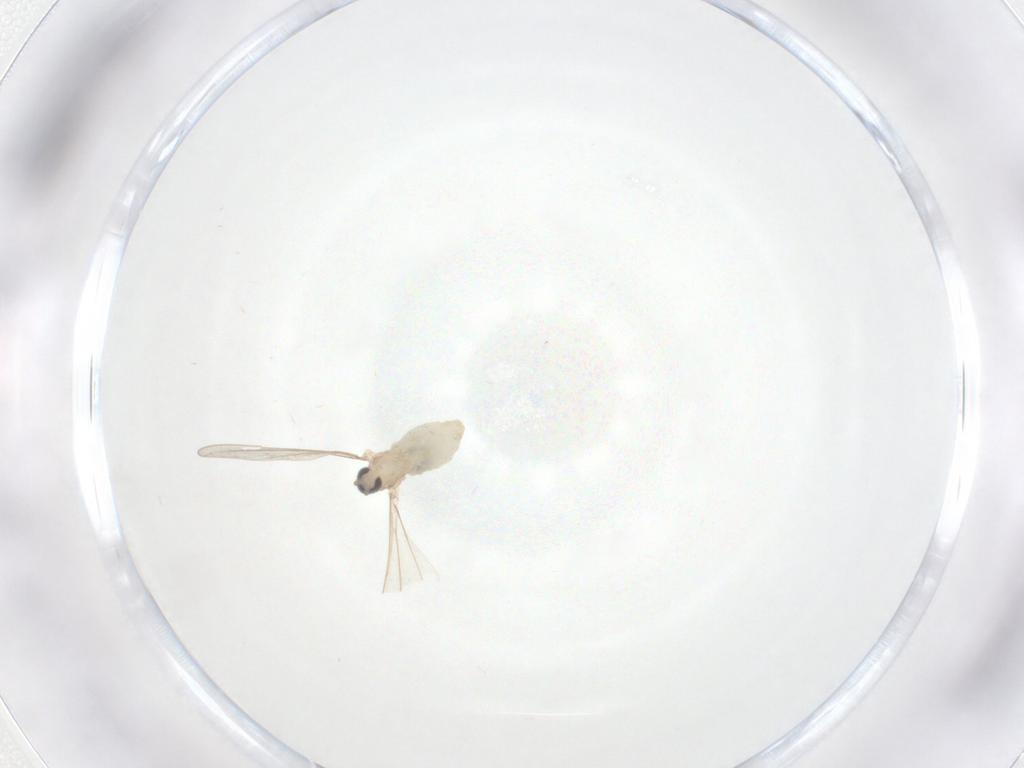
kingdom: Animalia
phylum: Arthropoda
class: Insecta
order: Diptera
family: Cecidomyiidae
